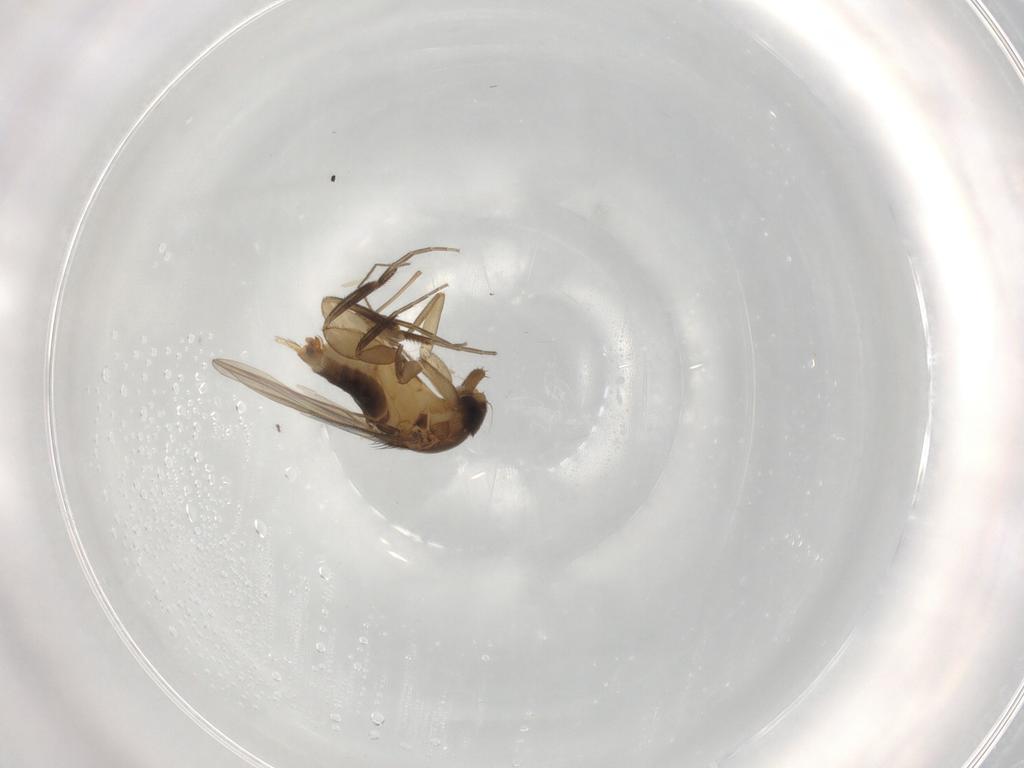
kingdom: Animalia
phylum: Arthropoda
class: Insecta
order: Diptera
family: Phoridae
